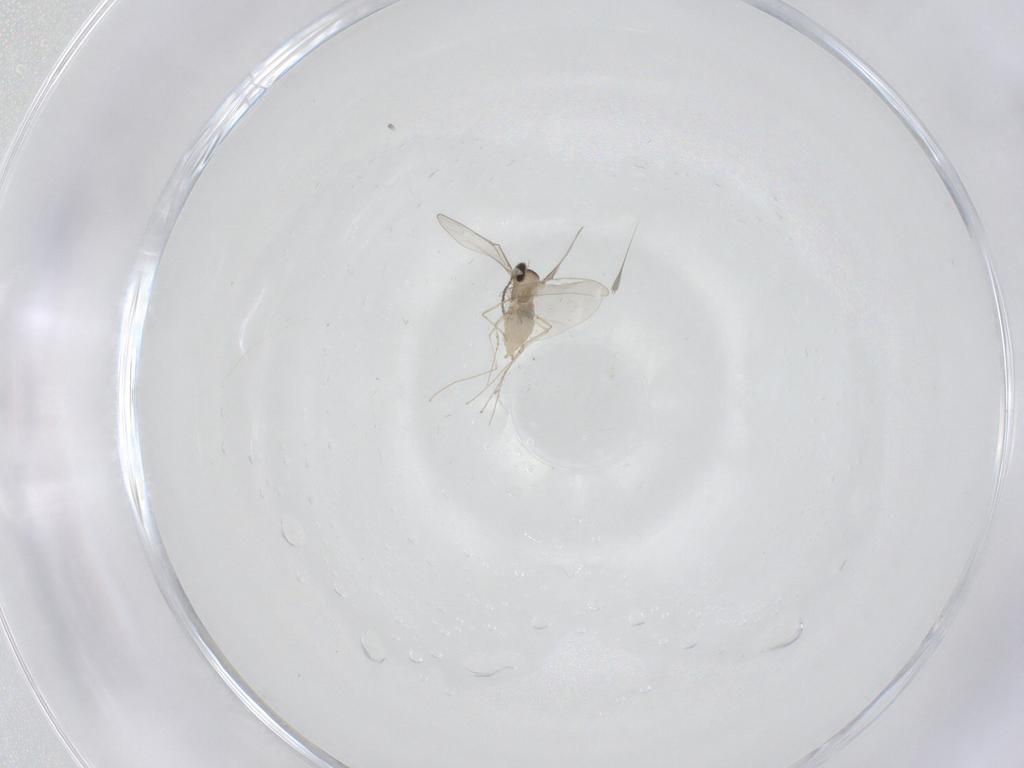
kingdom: Animalia
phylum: Arthropoda
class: Insecta
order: Diptera
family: Cecidomyiidae
